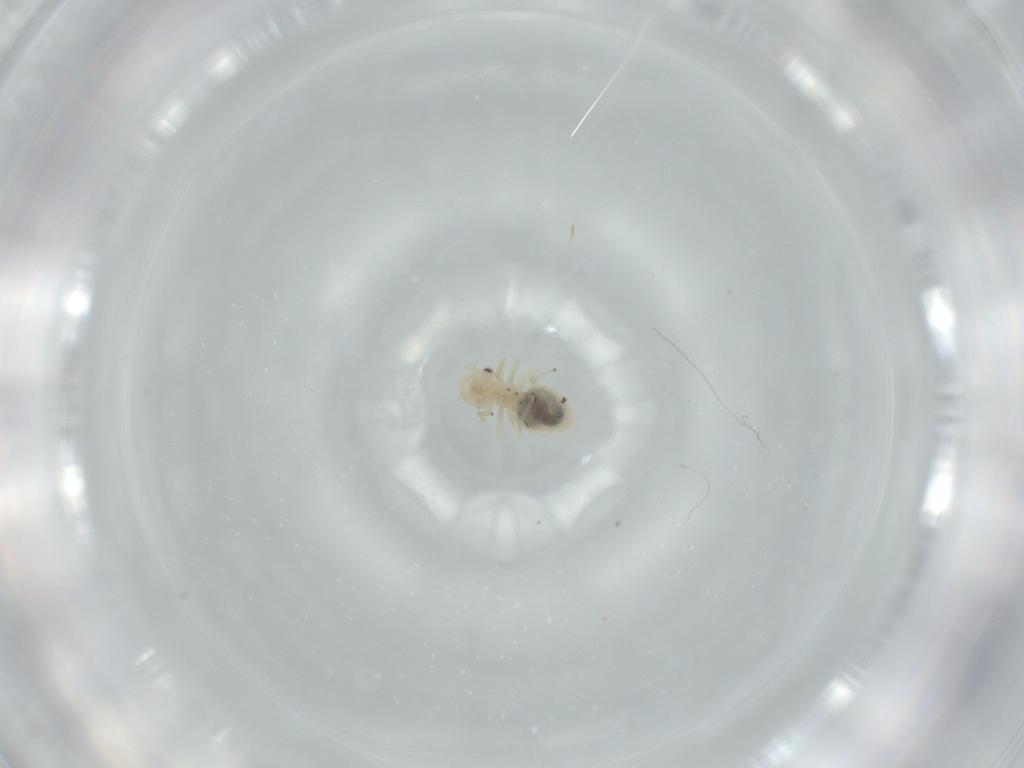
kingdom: Animalia
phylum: Arthropoda
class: Insecta
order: Psocodea
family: Caeciliusidae
